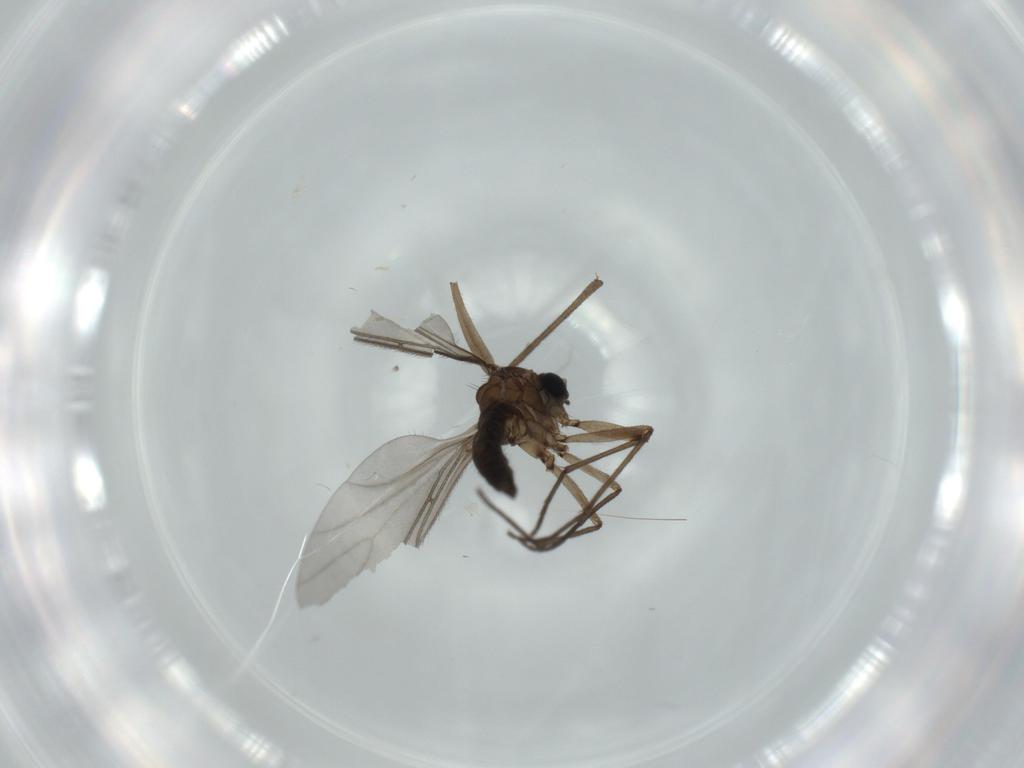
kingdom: Animalia
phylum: Arthropoda
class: Insecta
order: Diptera
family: Sciaridae
